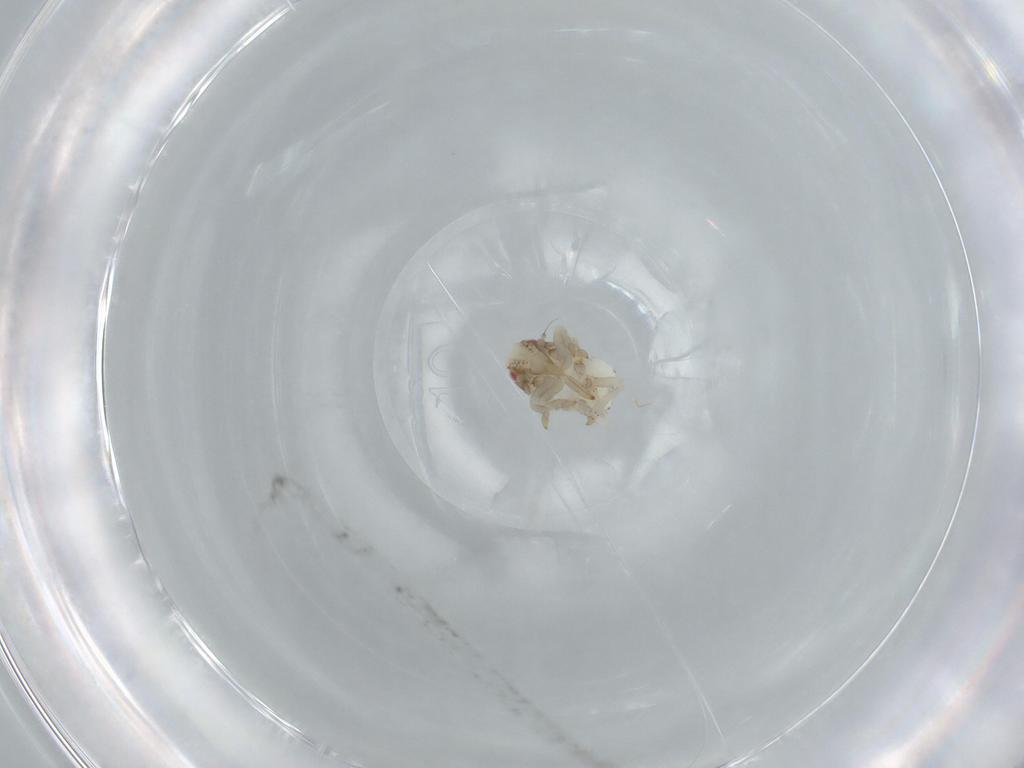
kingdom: Animalia
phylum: Arthropoda
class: Insecta
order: Hemiptera
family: Acanaloniidae
